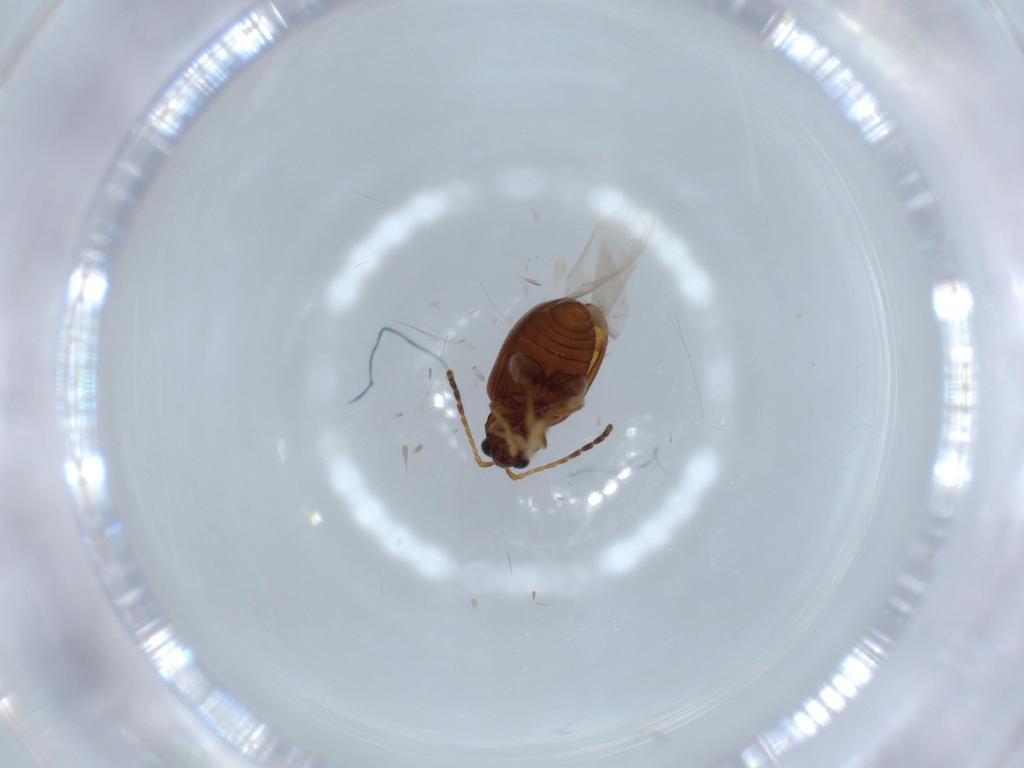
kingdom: Animalia
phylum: Arthropoda
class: Insecta
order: Coleoptera
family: Chrysomelidae
